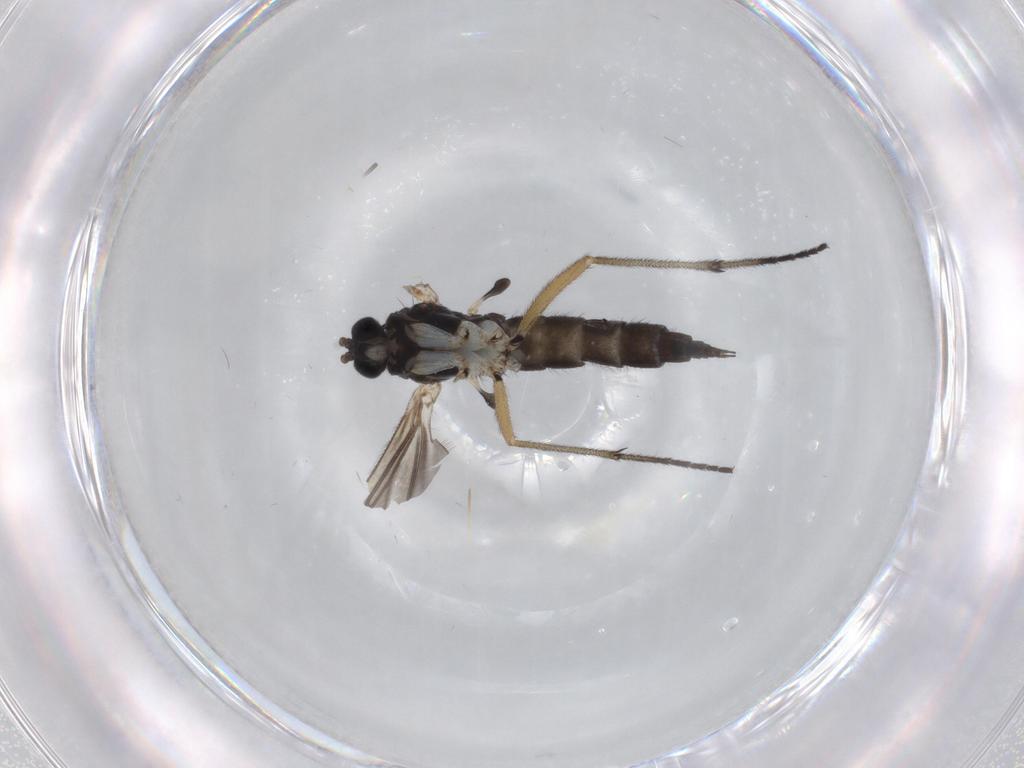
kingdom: Animalia
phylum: Arthropoda
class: Insecta
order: Diptera
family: Sciaridae
